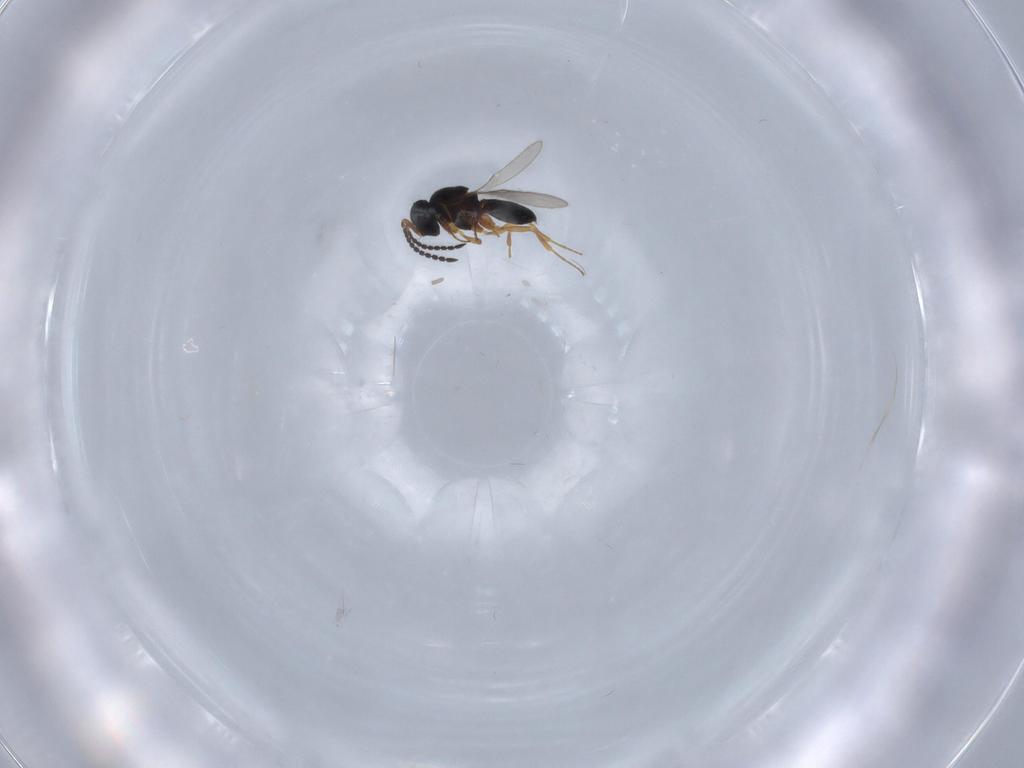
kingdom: Animalia
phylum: Arthropoda
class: Insecta
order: Hymenoptera
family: Scelionidae
